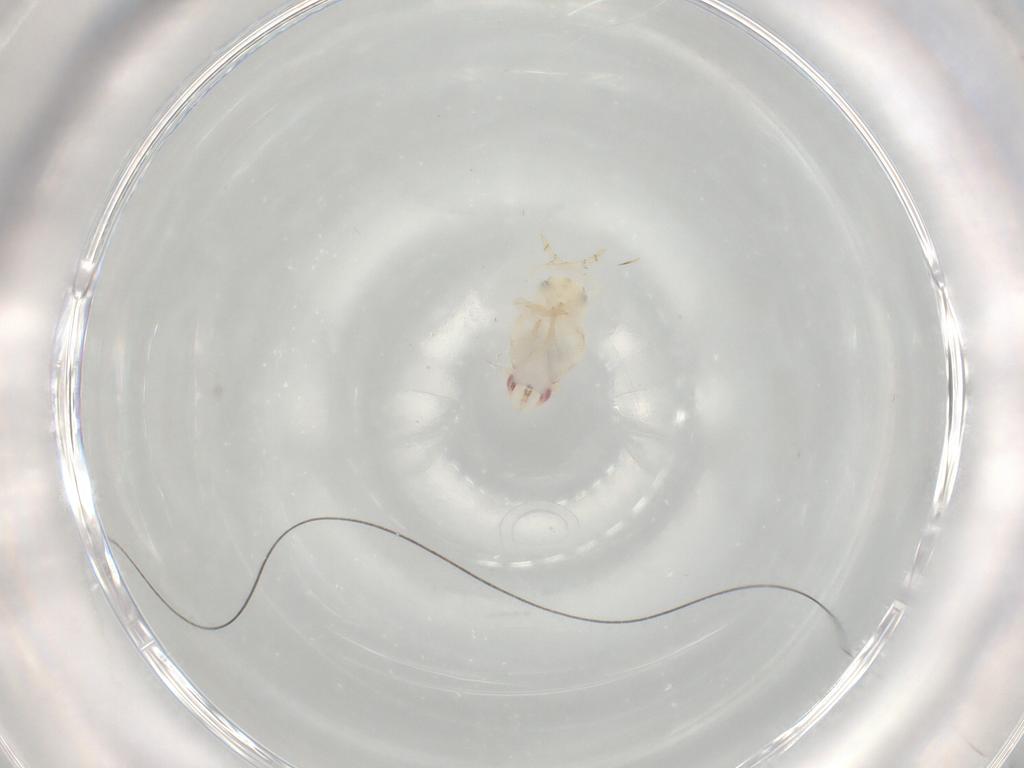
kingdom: Animalia
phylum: Arthropoda
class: Insecta
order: Hemiptera
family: Flatidae
